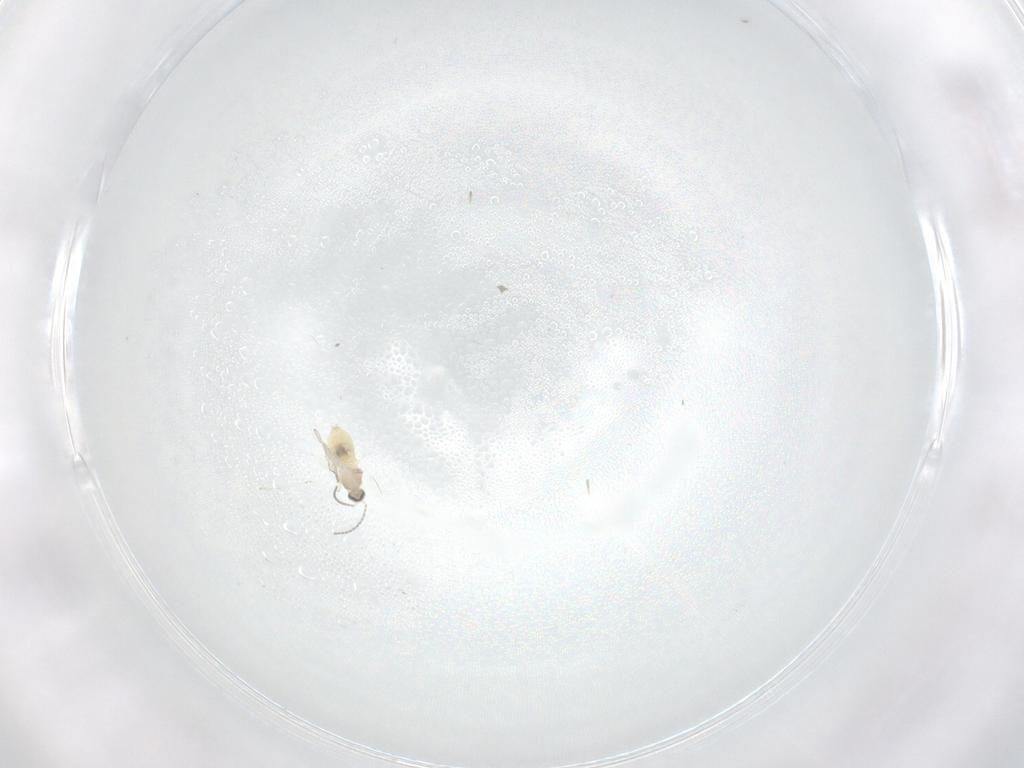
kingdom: Animalia
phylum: Arthropoda
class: Insecta
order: Diptera
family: Cecidomyiidae
